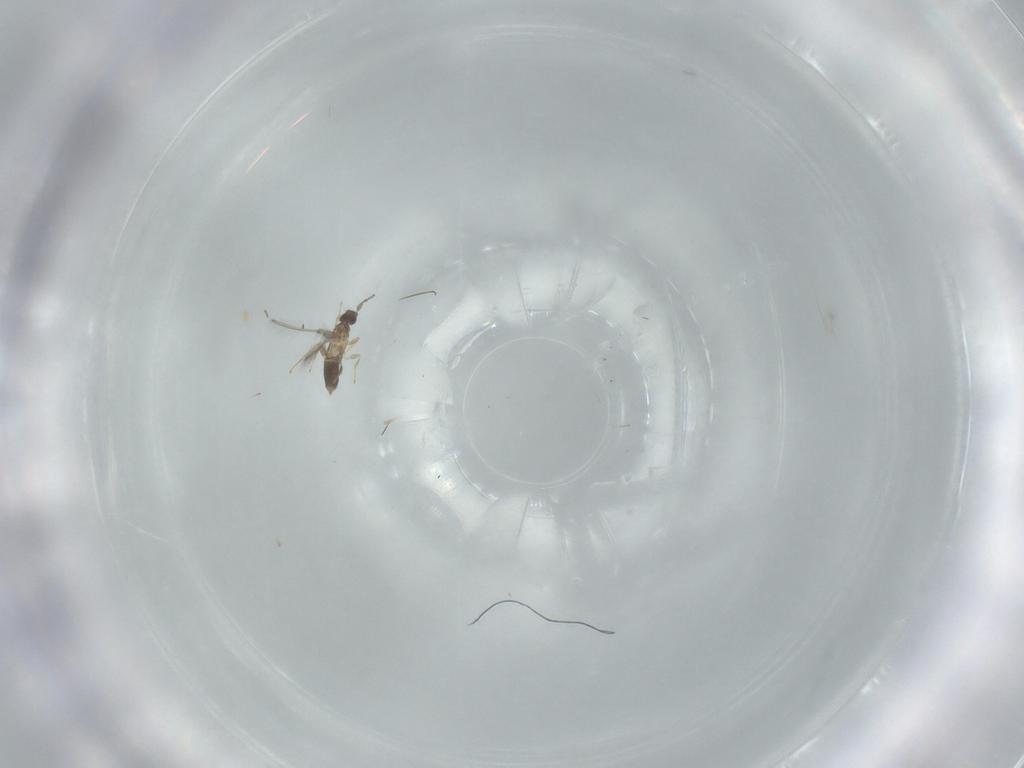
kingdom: Animalia
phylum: Arthropoda
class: Insecta
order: Hymenoptera
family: Mymaridae
